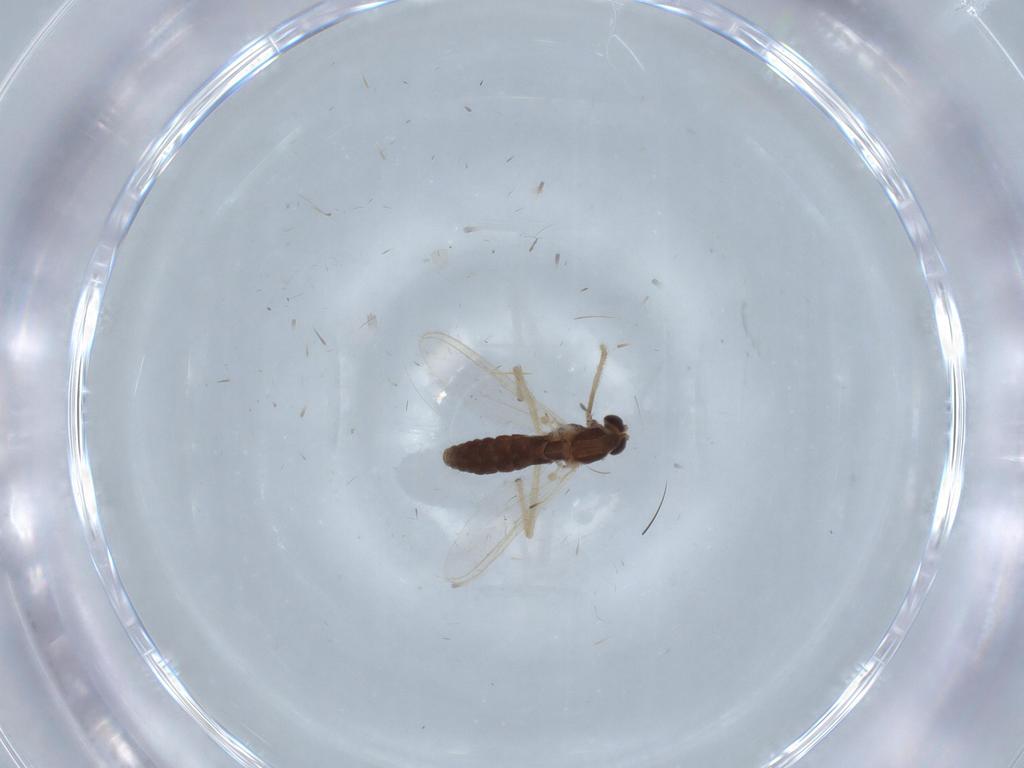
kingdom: Animalia
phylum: Arthropoda
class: Insecta
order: Diptera
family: Chironomidae
